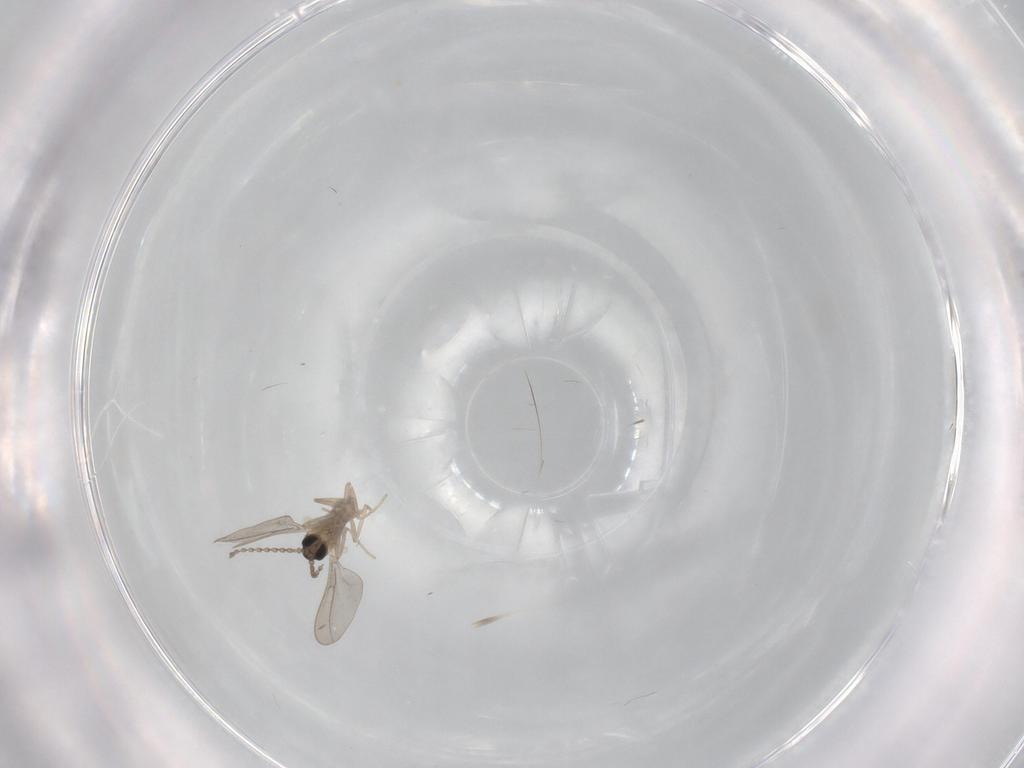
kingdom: Animalia
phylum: Arthropoda
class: Insecta
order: Diptera
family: Limoniidae
